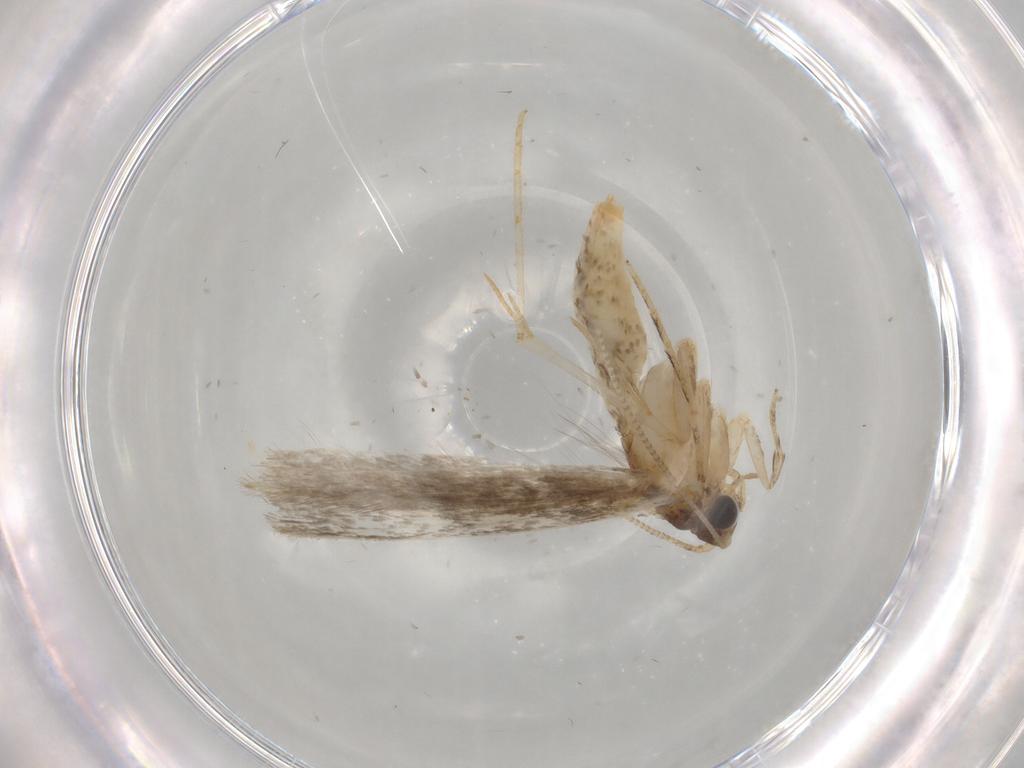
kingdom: Animalia
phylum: Arthropoda
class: Insecta
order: Lepidoptera
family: Tineidae
